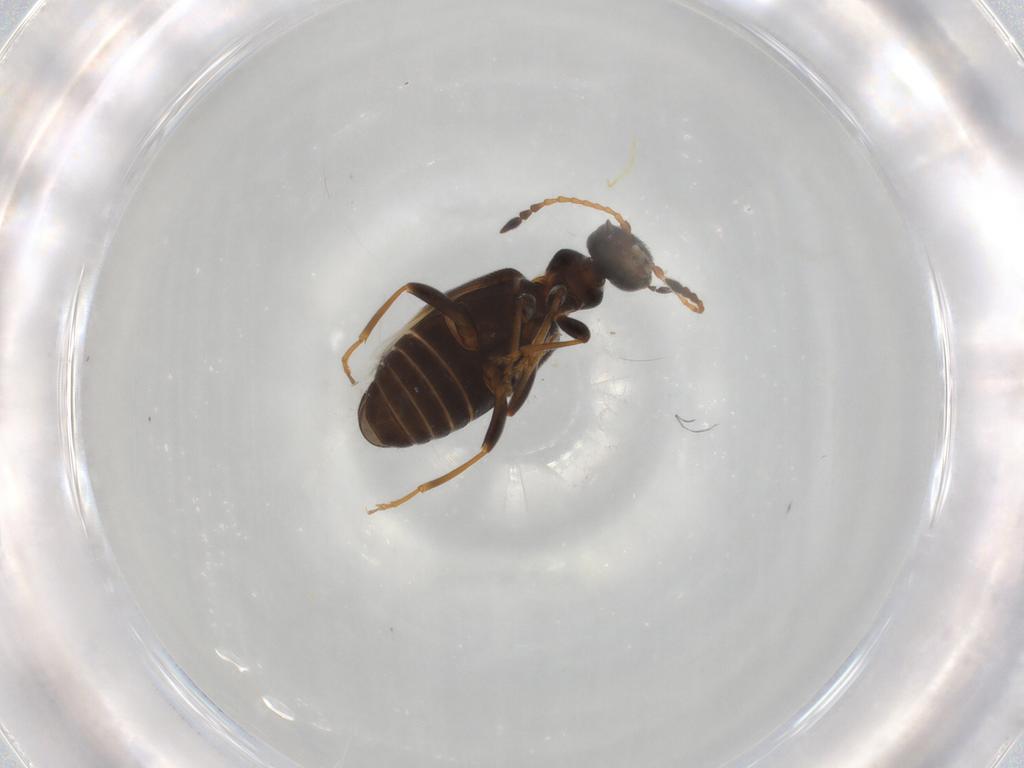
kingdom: Animalia
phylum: Arthropoda
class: Insecta
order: Coleoptera
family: Anthicidae
